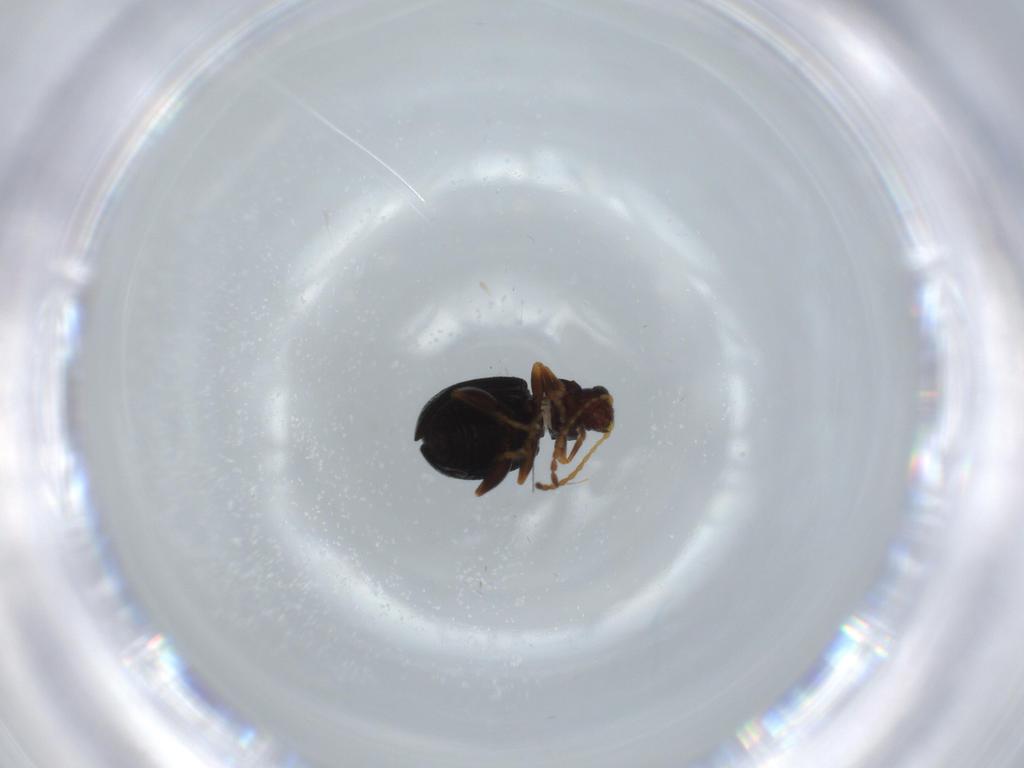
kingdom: Animalia
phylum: Arthropoda
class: Insecta
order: Coleoptera
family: Chrysomelidae
